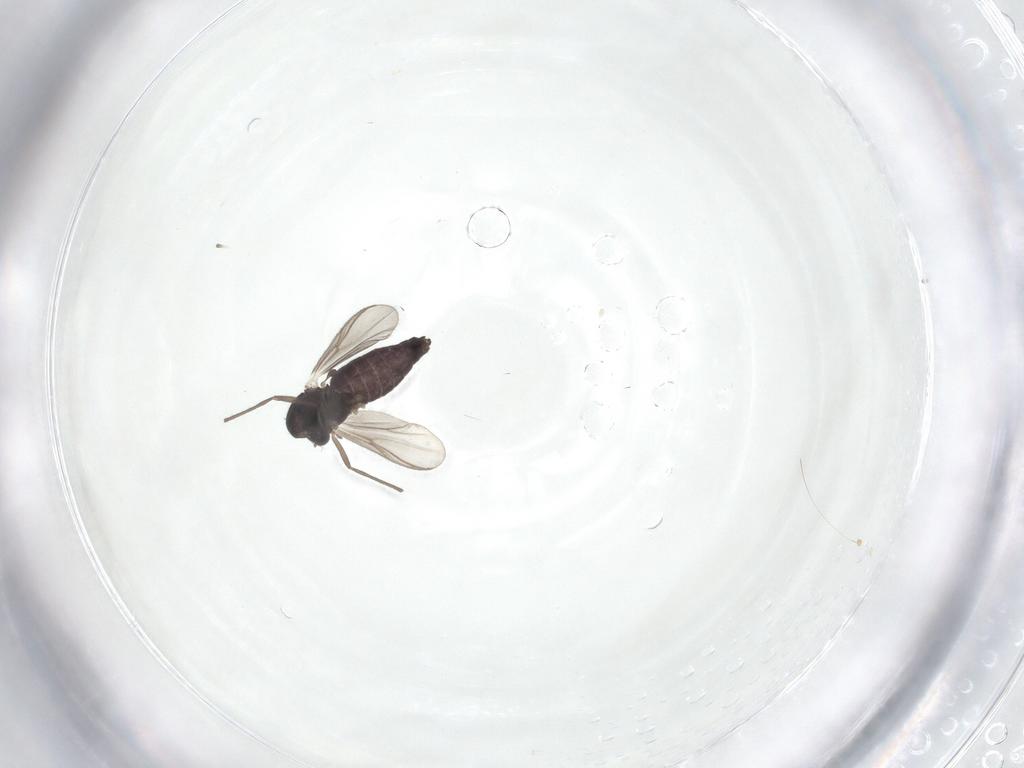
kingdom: Animalia
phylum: Arthropoda
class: Insecta
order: Diptera
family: Chironomidae
